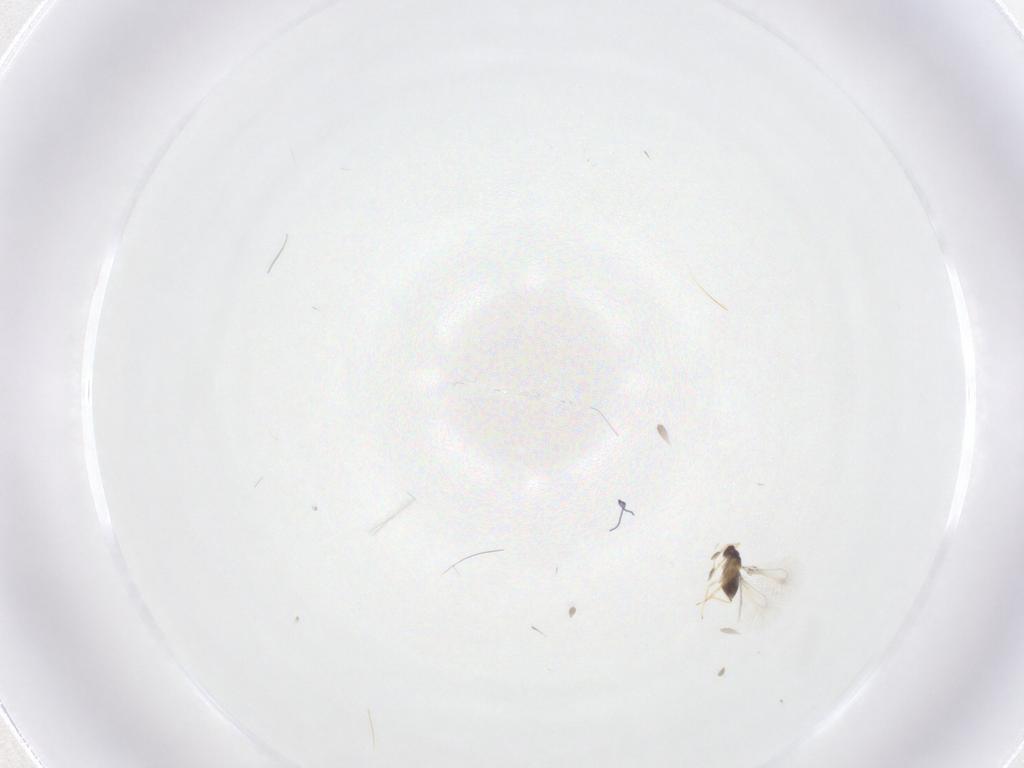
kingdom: Animalia
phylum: Arthropoda
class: Insecta
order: Hymenoptera
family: Mymaridae
